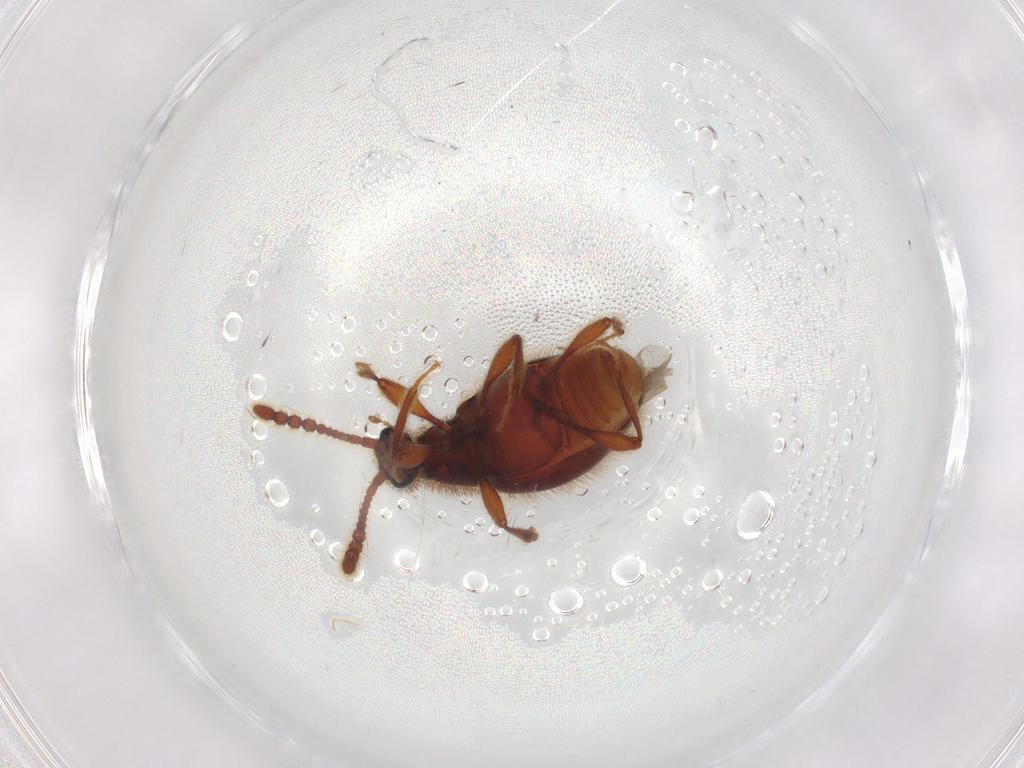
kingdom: Animalia
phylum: Arthropoda
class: Insecta
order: Coleoptera
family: Staphylinidae
